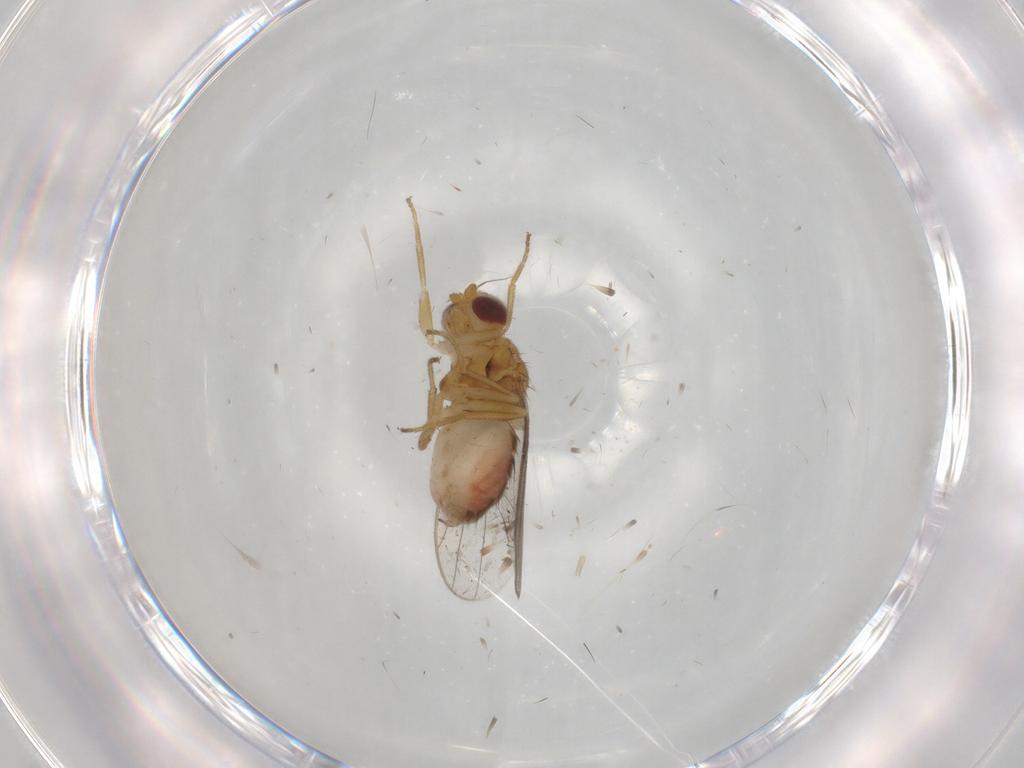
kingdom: Animalia
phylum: Arthropoda
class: Insecta
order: Diptera
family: Chloropidae
